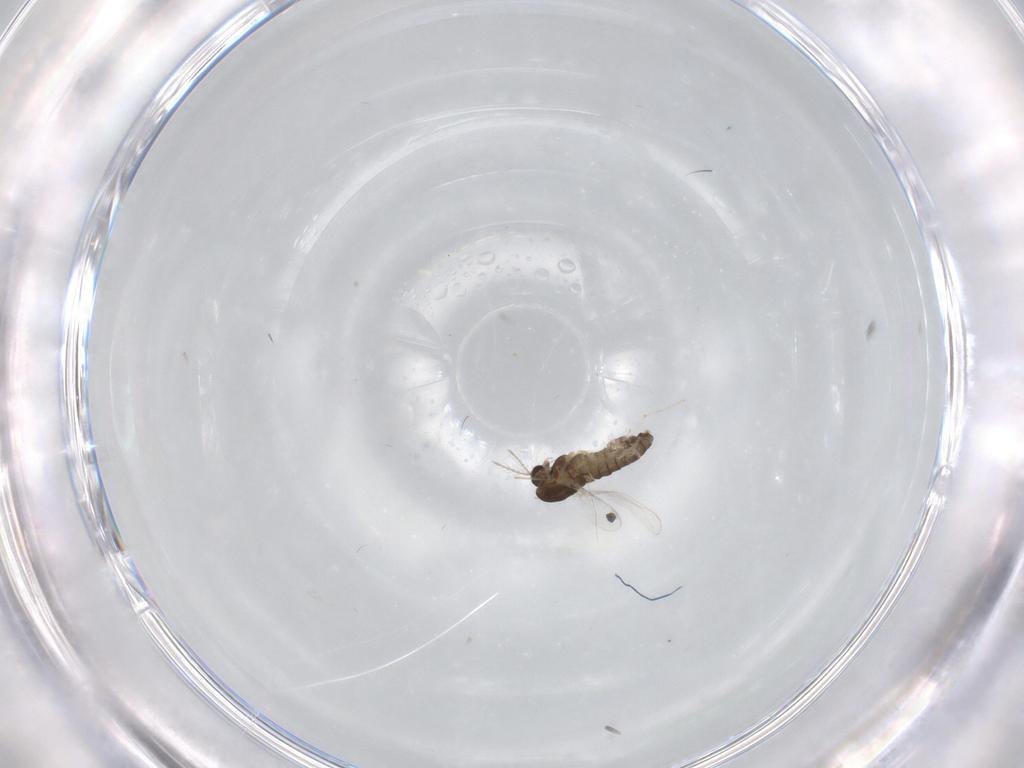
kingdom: Animalia
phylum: Arthropoda
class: Insecta
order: Diptera
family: Chironomidae
